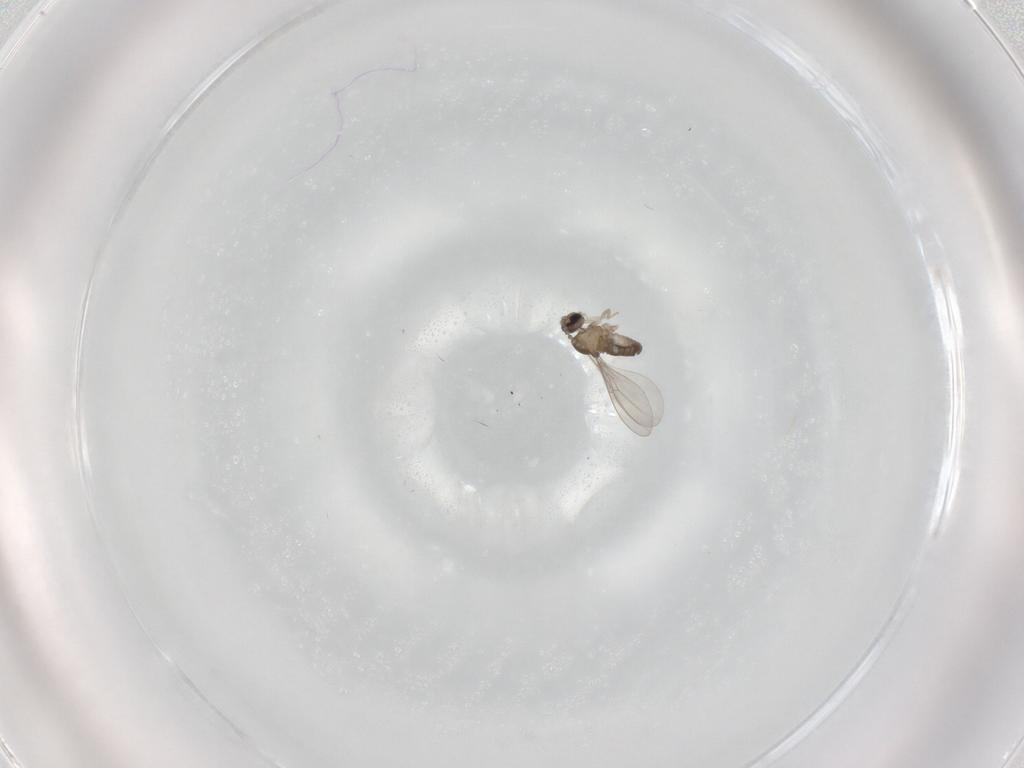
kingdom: Animalia
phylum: Arthropoda
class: Insecta
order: Diptera
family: Cecidomyiidae
